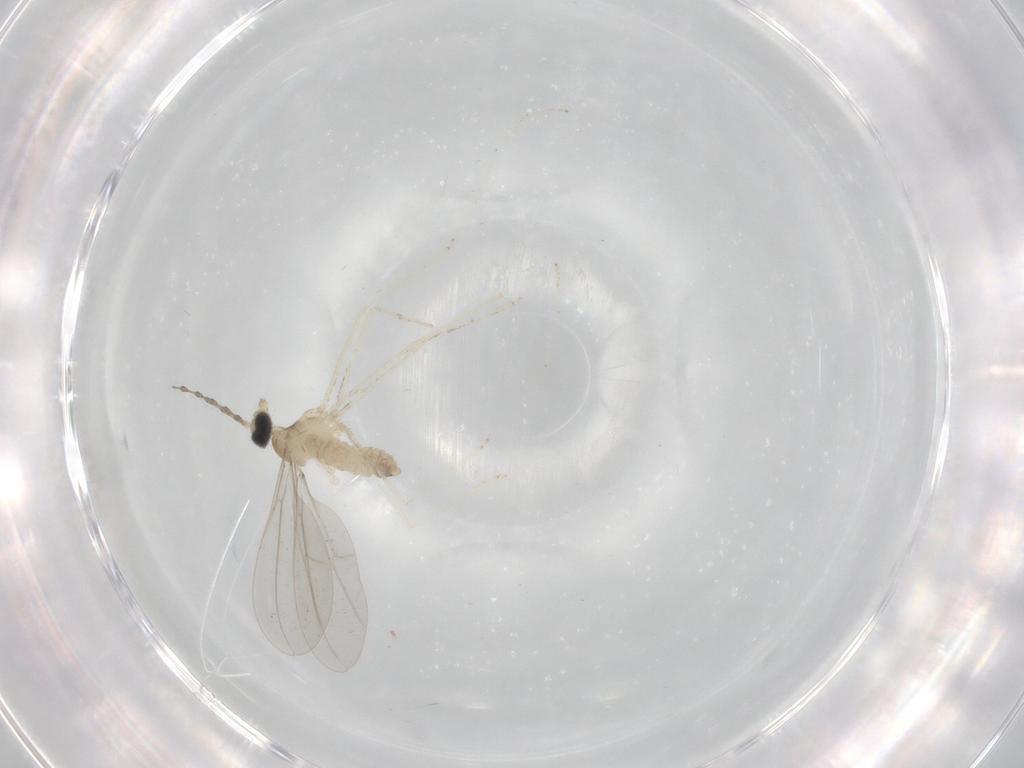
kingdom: Animalia
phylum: Arthropoda
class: Insecta
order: Diptera
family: Cecidomyiidae
